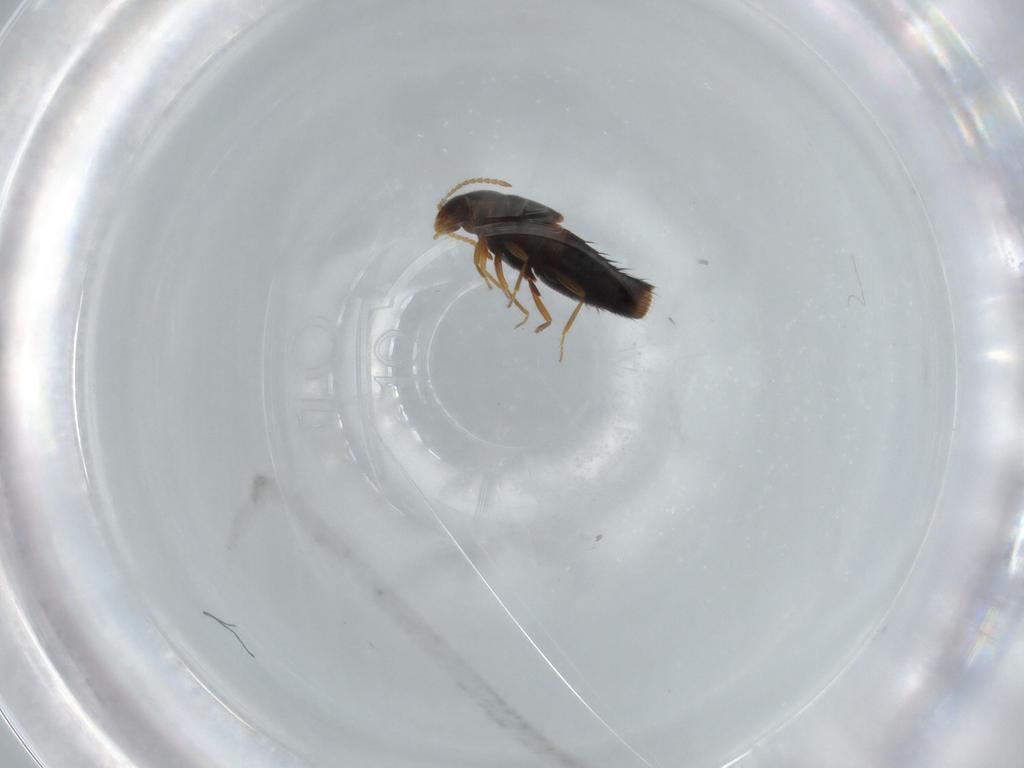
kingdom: Animalia
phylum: Arthropoda
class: Insecta
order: Coleoptera
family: Staphylinidae
